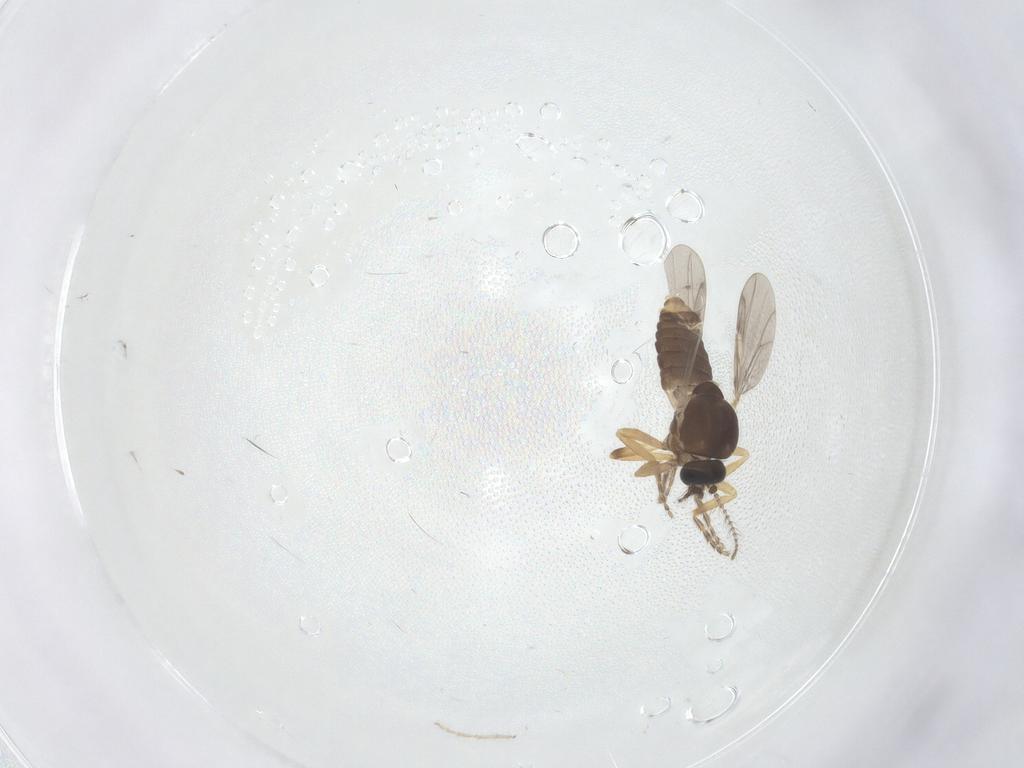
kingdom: Animalia
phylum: Arthropoda
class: Insecta
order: Diptera
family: Ceratopogonidae
